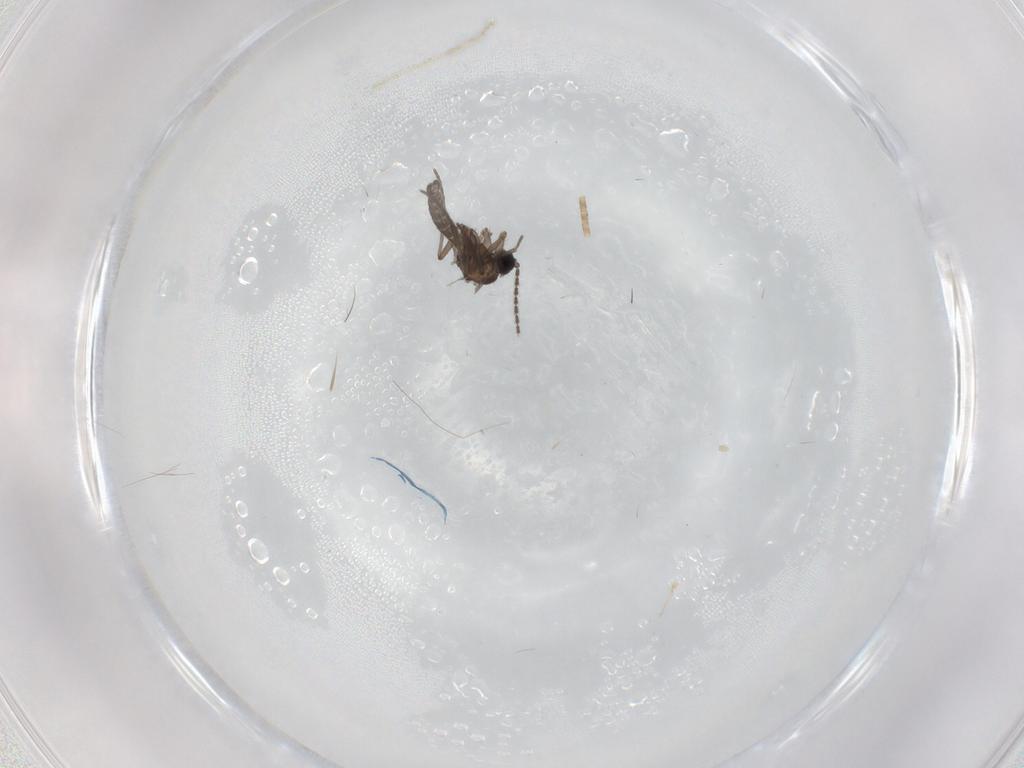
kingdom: Animalia
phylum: Arthropoda
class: Insecta
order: Diptera
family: Sciaridae
